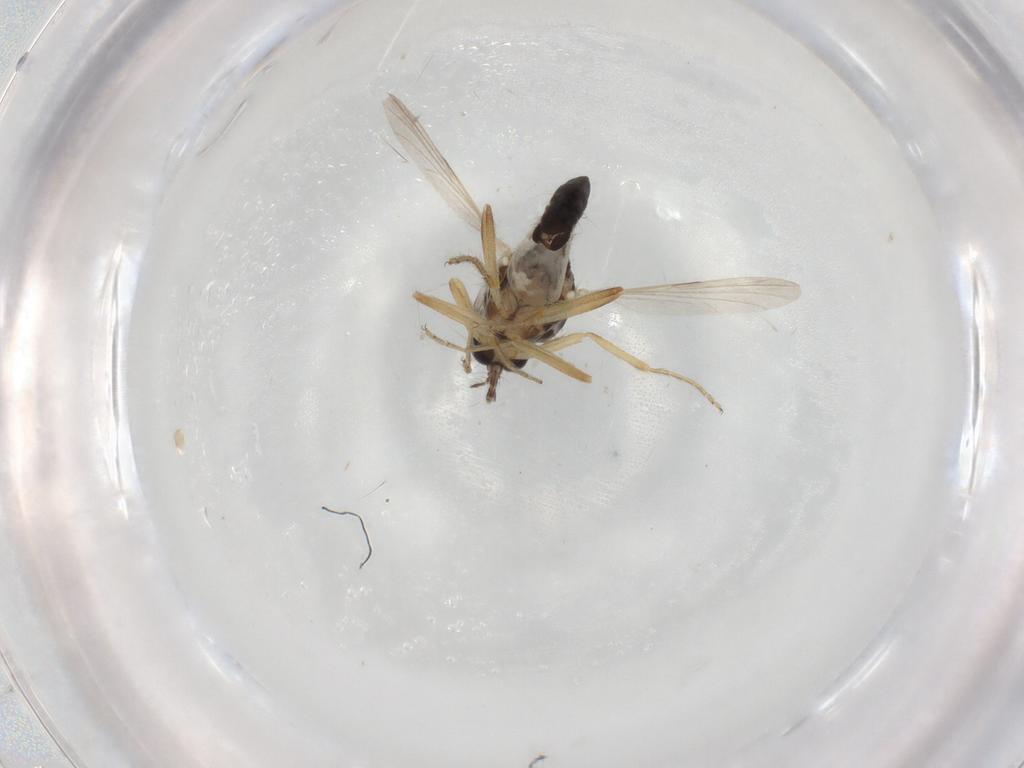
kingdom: Animalia
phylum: Arthropoda
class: Insecta
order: Diptera
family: Ceratopogonidae
